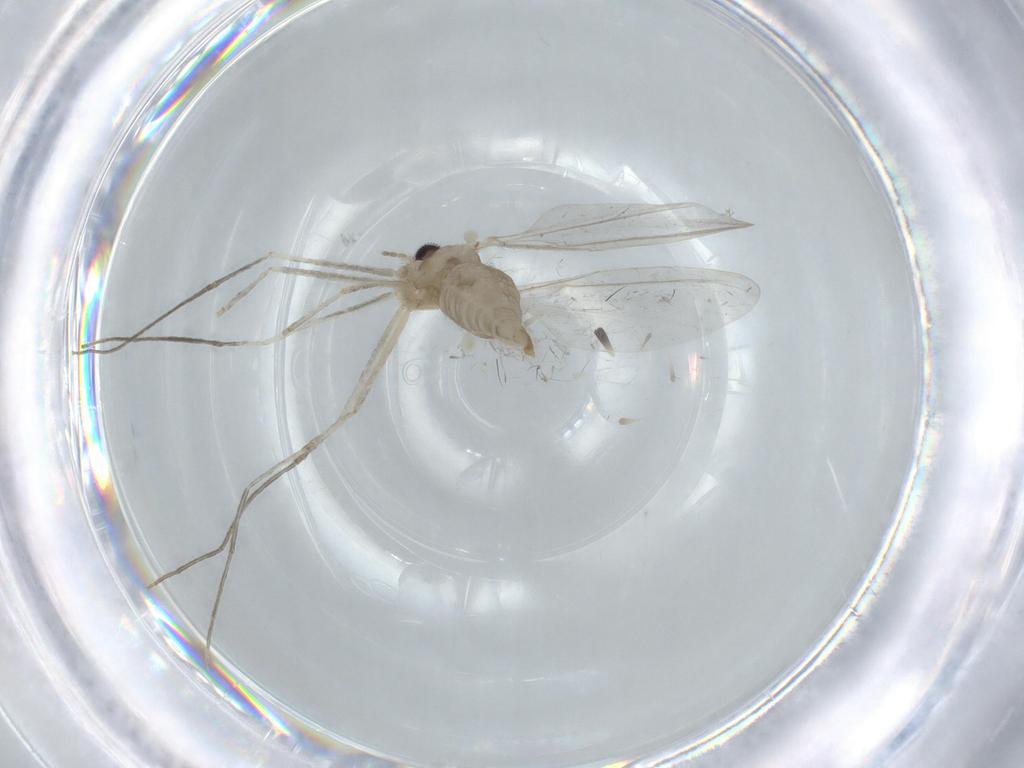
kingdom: Animalia
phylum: Arthropoda
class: Insecta
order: Diptera
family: Cecidomyiidae
